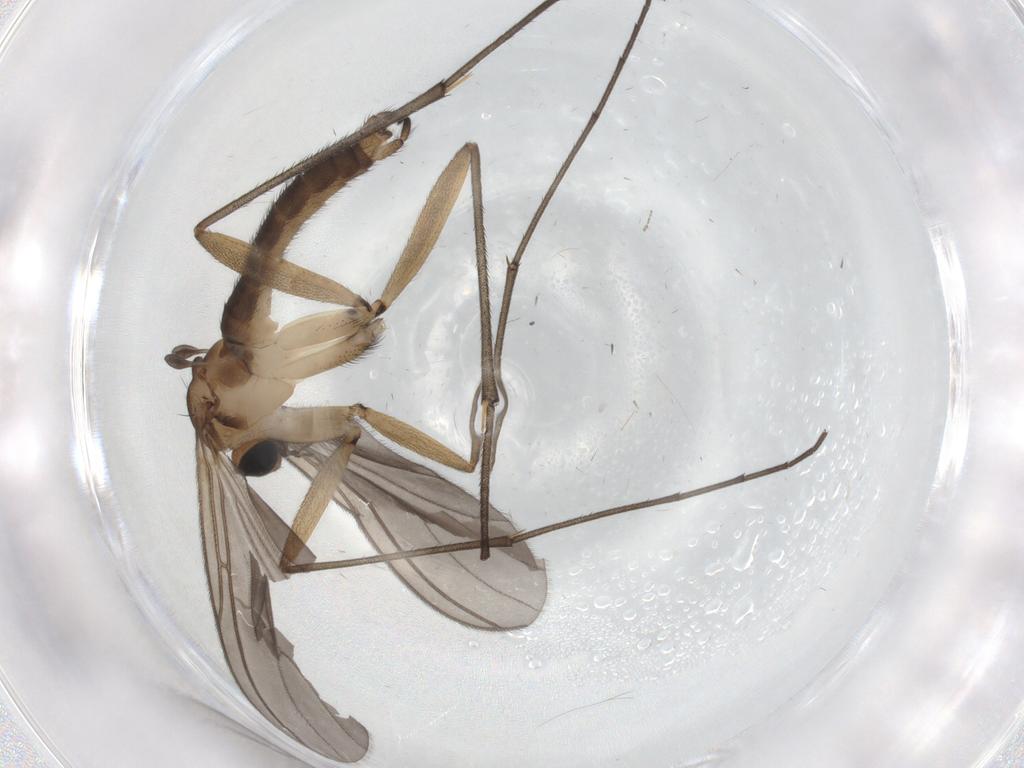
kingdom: Animalia
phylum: Arthropoda
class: Insecta
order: Diptera
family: Sciaridae
